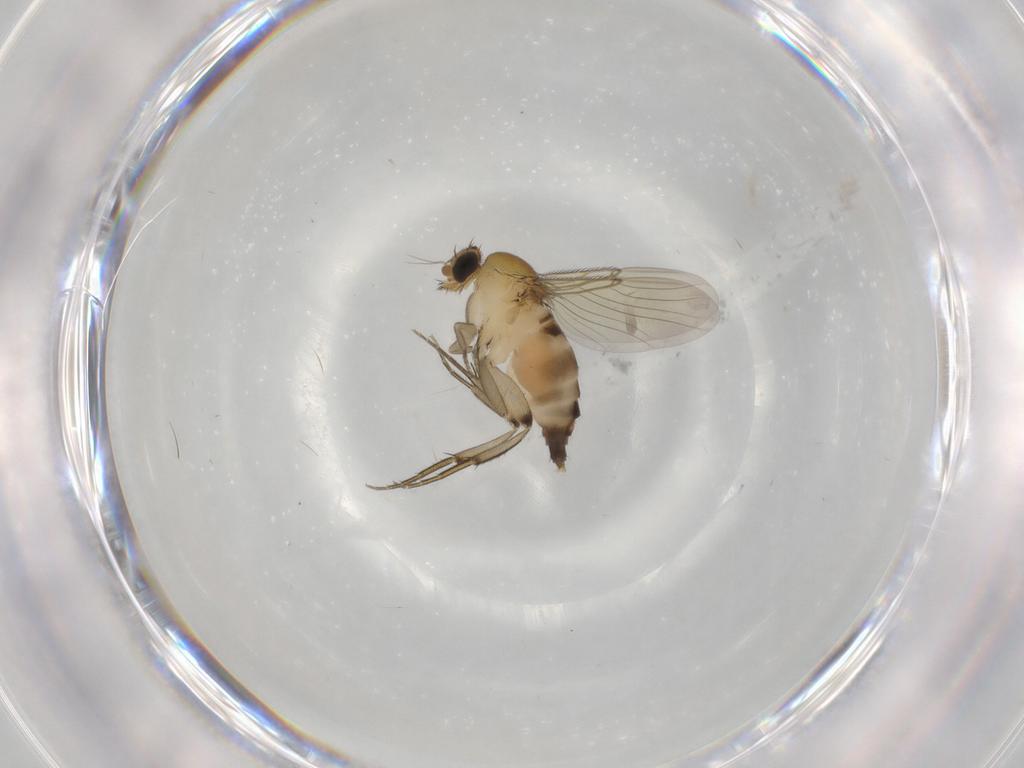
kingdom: Animalia
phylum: Arthropoda
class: Insecta
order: Diptera
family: Phoridae
